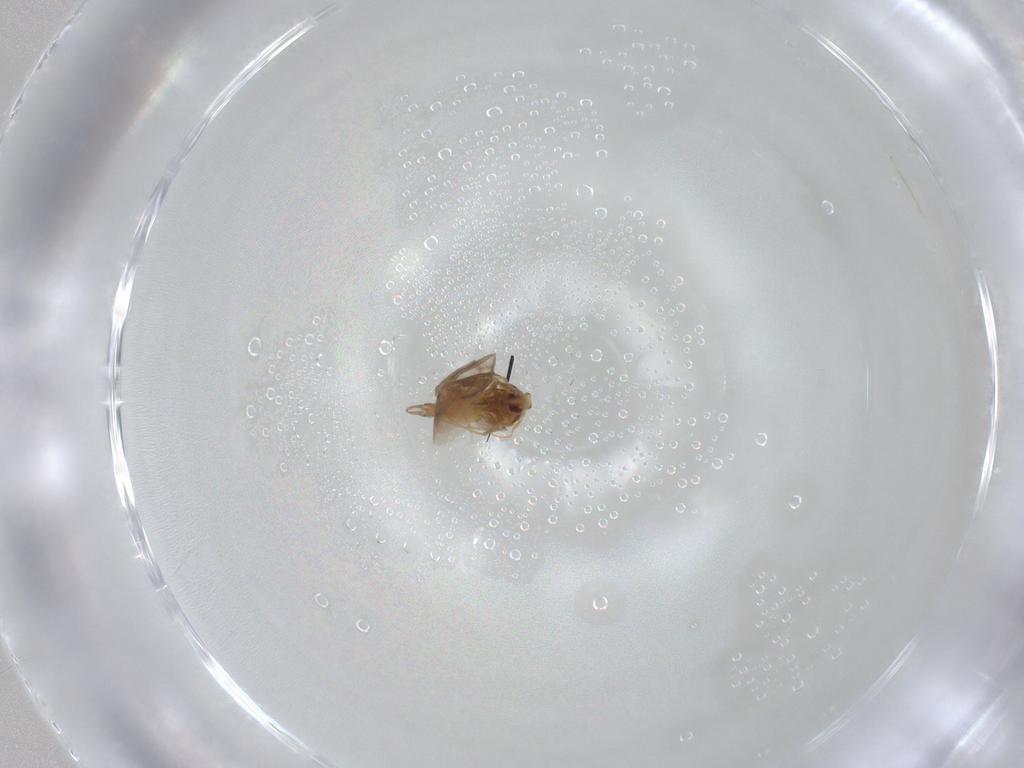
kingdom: Animalia
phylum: Arthropoda
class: Insecta
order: Hemiptera
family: Aleyrodidae
